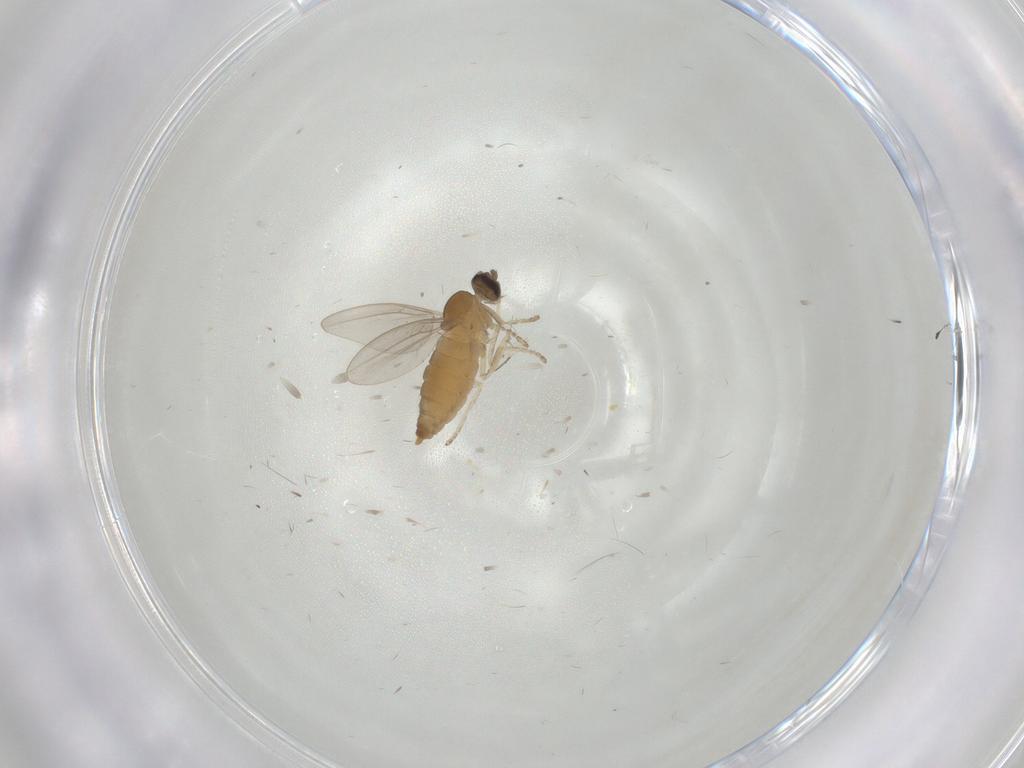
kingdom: Animalia
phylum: Arthropoda
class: Insecta
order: Diptera
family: Cecidomyiidae
